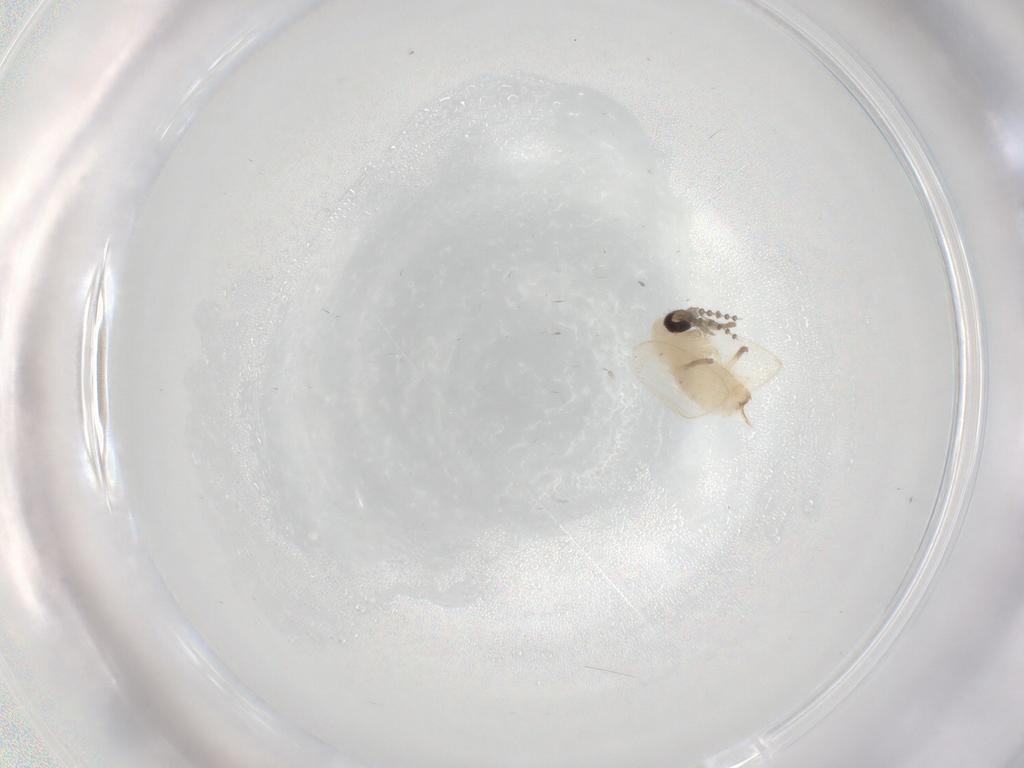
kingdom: Animalia
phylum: Arthropoda
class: Insecta
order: Diptera
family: Psychodidae
